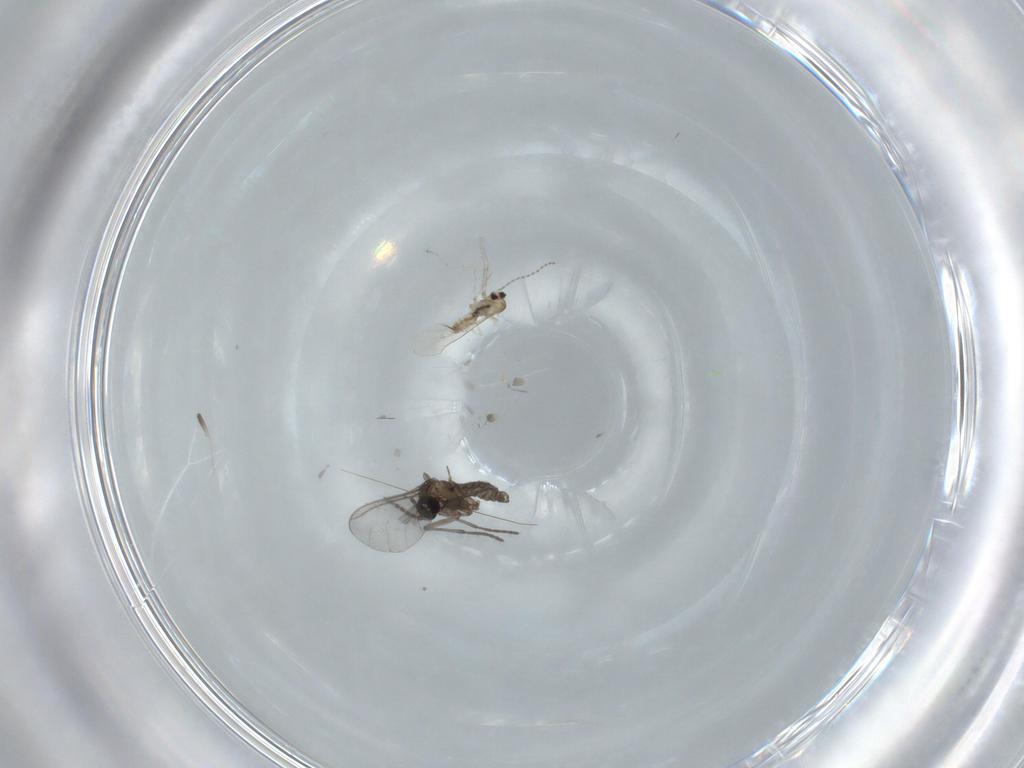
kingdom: Animalia
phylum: Arthropoda
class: Insecta
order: Diptera
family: Cecidomyiidae
